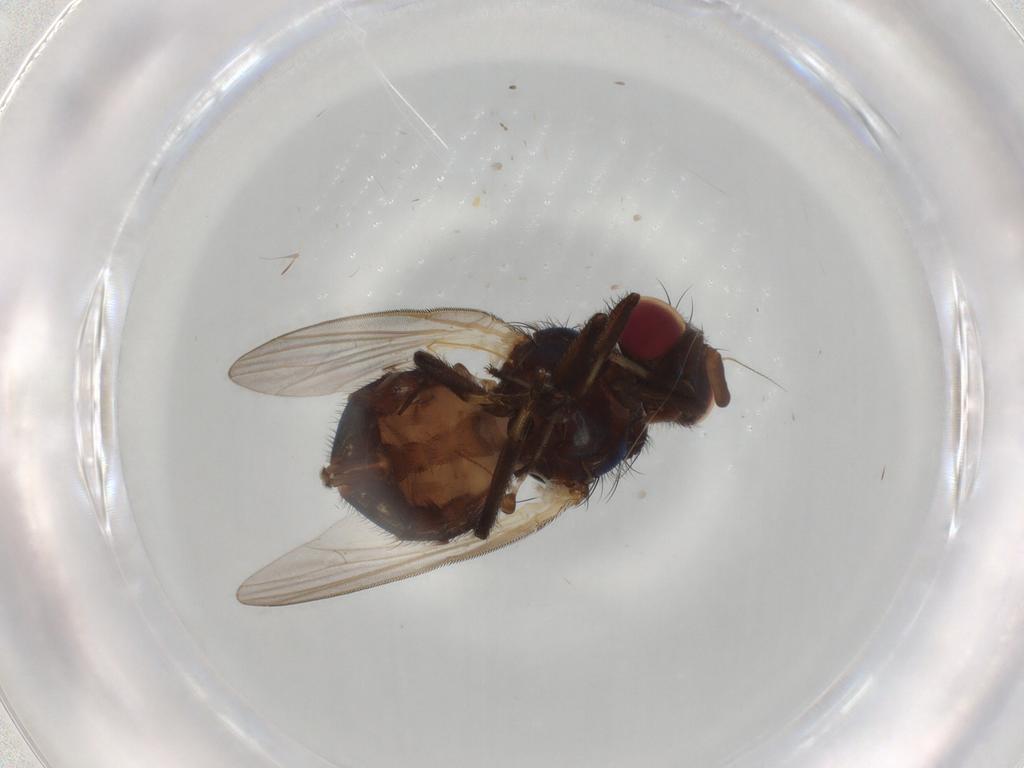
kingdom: Animalia
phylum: Arthropoda
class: Insecta
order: Diptera
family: Sciaridae
